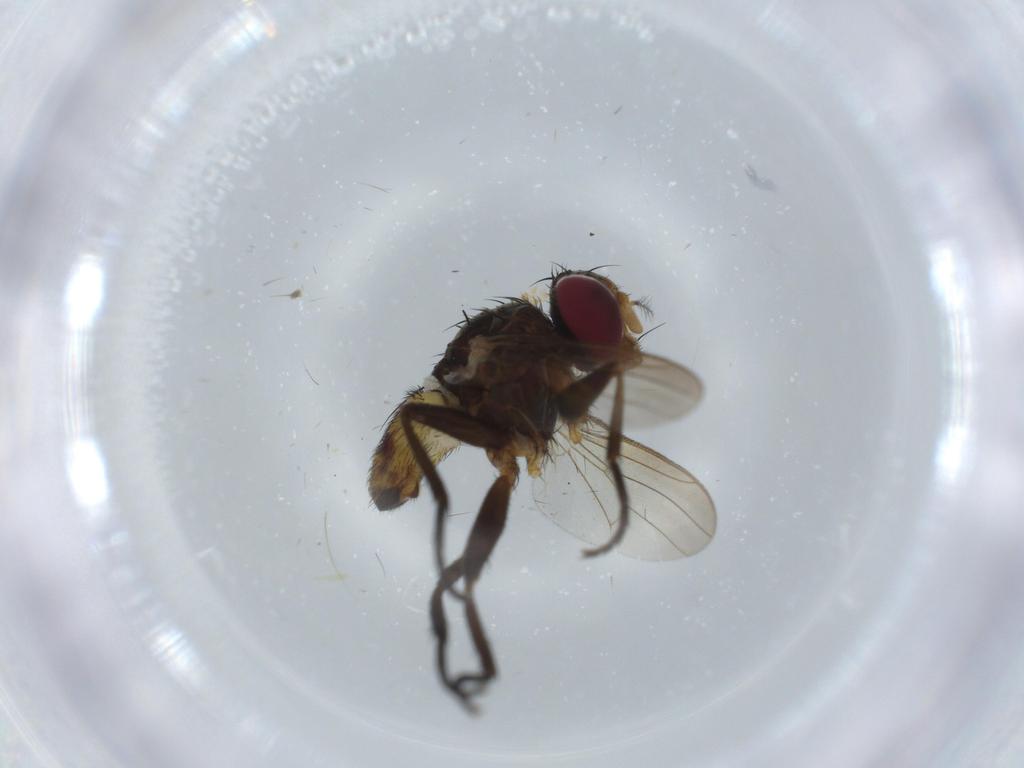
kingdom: Animalia
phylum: Arthropoda
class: Insecta
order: Diptera
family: Anthomyiidae
